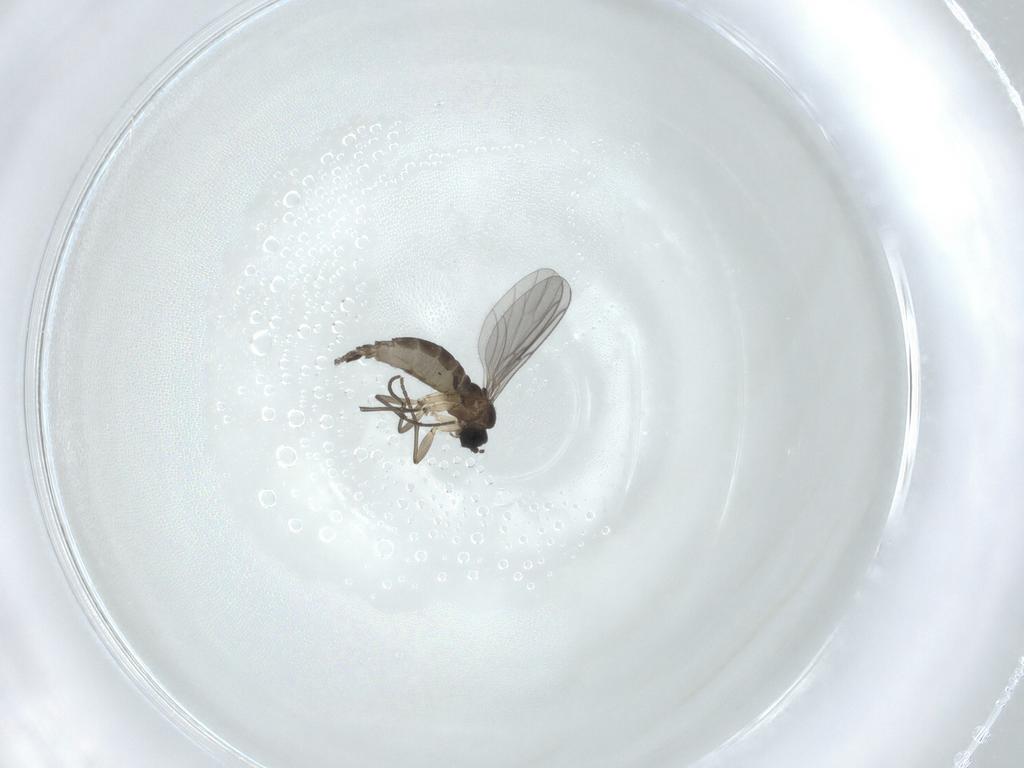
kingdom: Animalia
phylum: Arthropoda
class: Insecta
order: Diptera
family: Sciaridae
